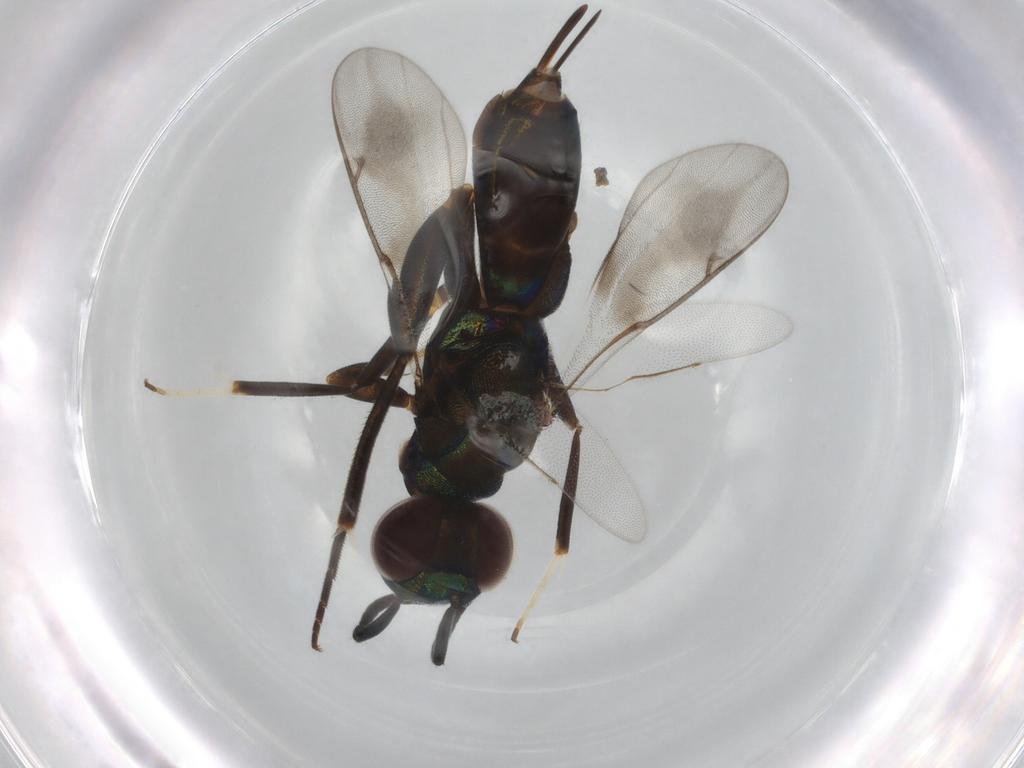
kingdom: Animalia
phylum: Arthropoda
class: Insecta
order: Hymenoptera
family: Eupelmidae
